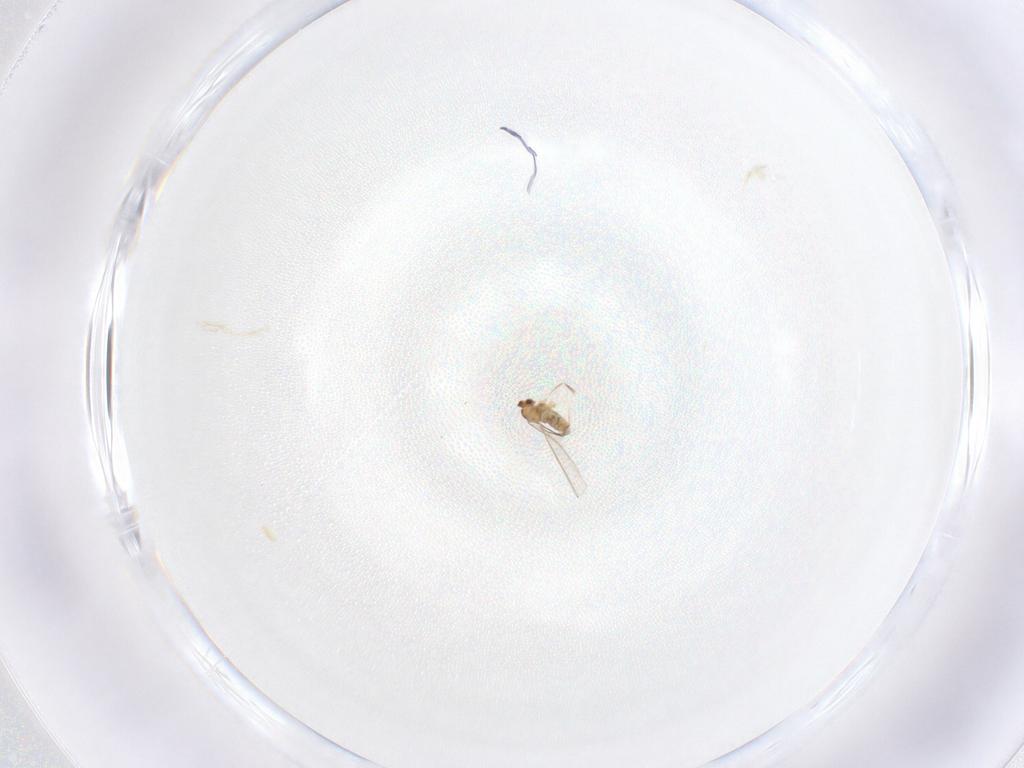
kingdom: Animalia
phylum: Arthropoda
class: Insecta
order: Diptera
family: Cecidomyiidae
